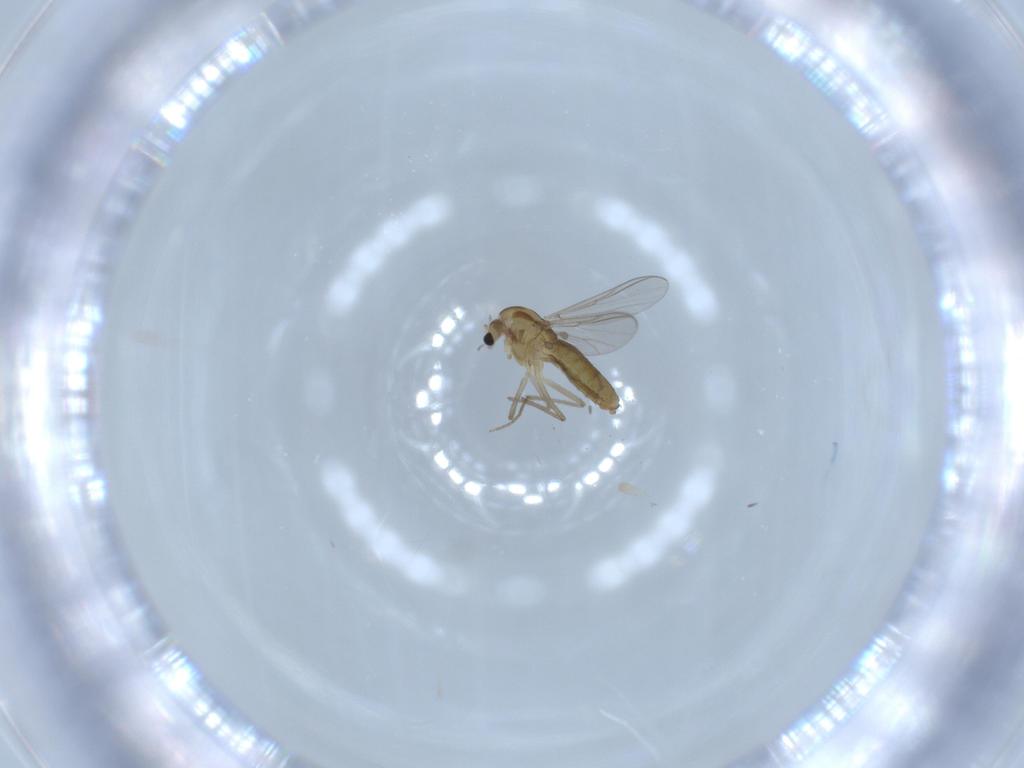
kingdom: Animalia
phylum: Arthropoda
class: Insecta
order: Diptera
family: Chironomidae
